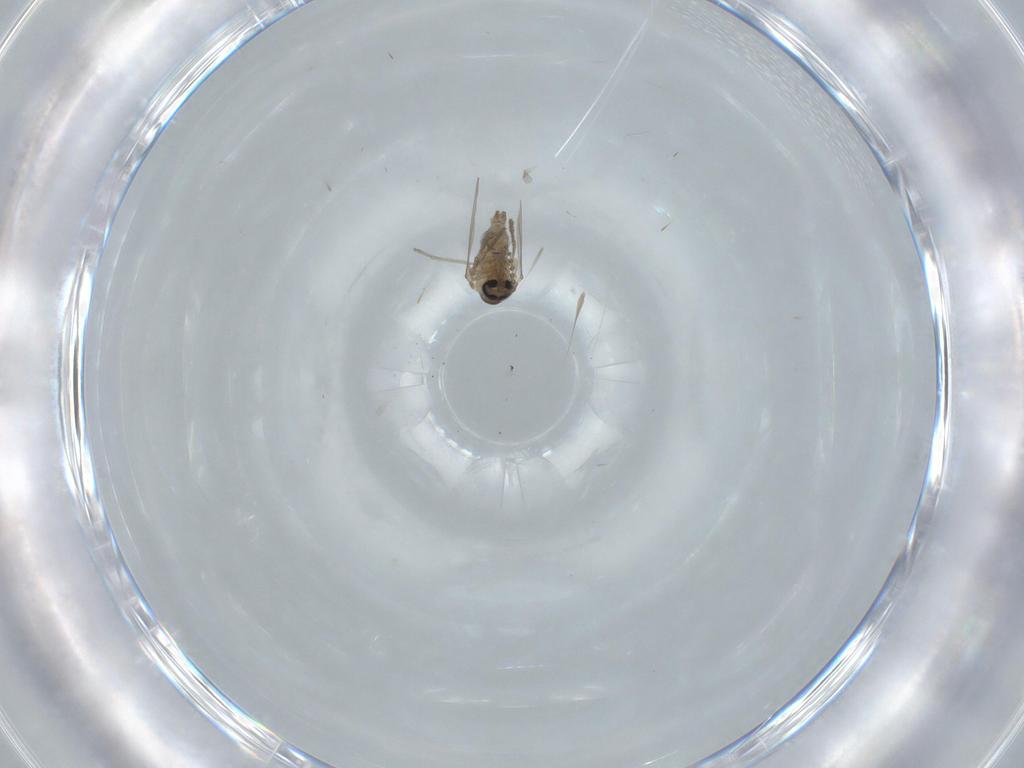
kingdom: Animalia
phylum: Arthropoda
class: Insecta
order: Diptera
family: Psychodidae
